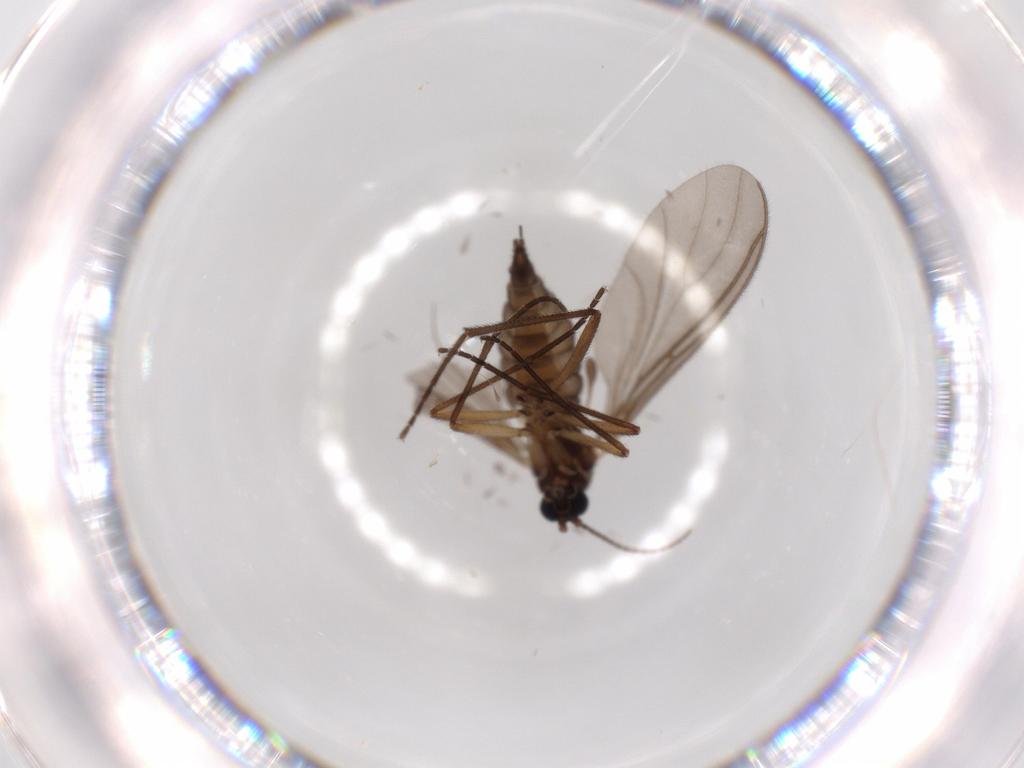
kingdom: Animalia
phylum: Arthropoda
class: Insecta
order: Diptera
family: Sciaridae
